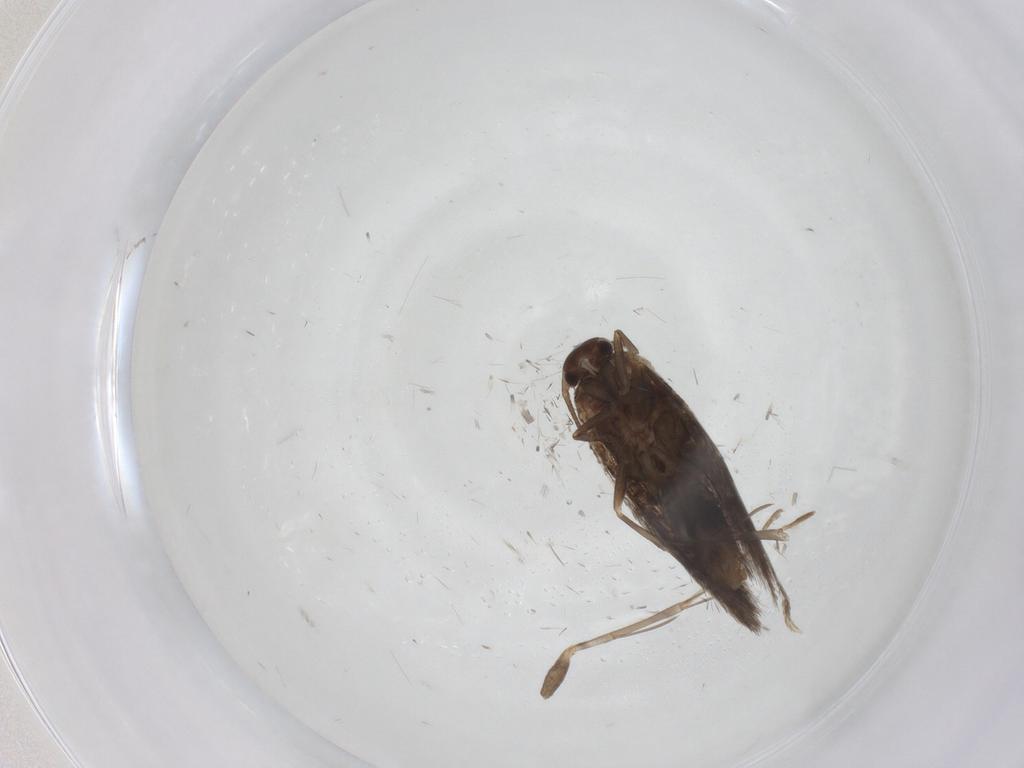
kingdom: Animalia
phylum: Arthropoda
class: Insecta
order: Lepidoptera
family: Elachistidae
